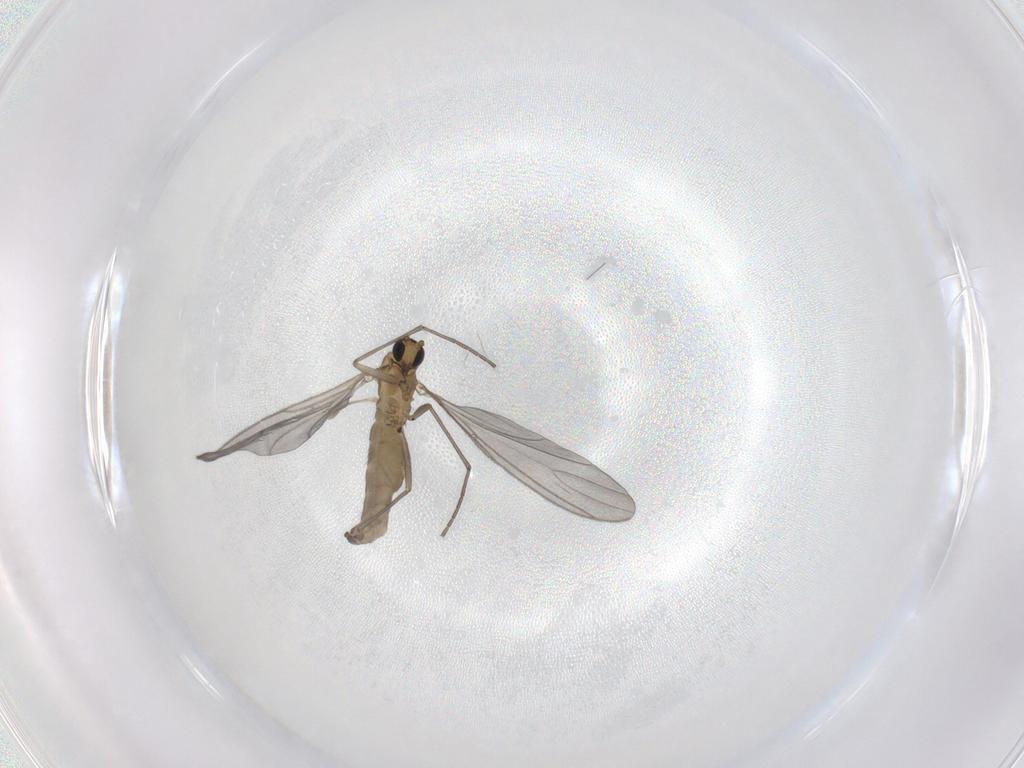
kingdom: Animalia
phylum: Arthropoda
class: Insecta
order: Diptera
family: Sciaridae
